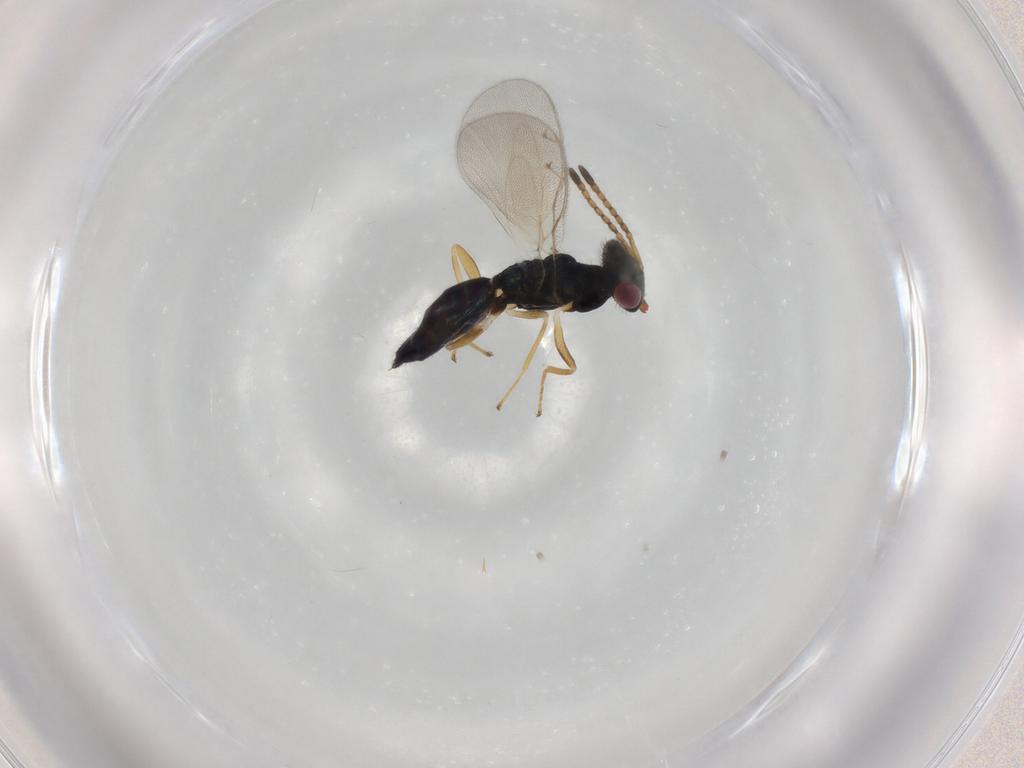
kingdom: Animalia
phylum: Arthropoda
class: Insecta
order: Hymenoptera
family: Pteromalidae
